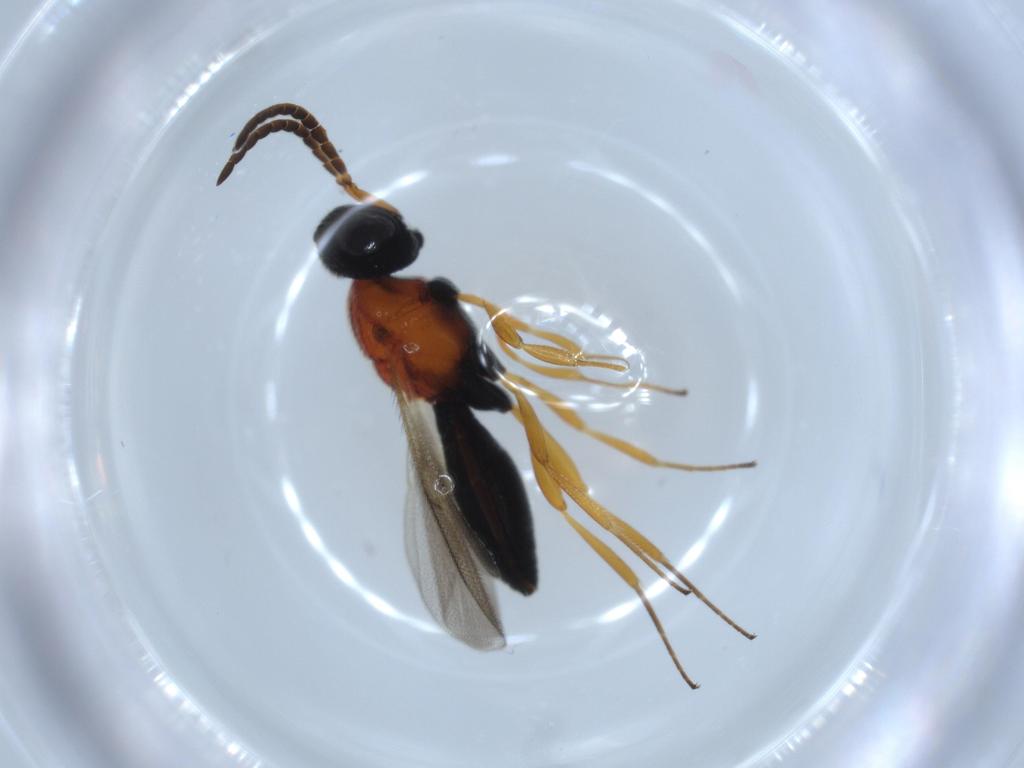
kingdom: Animalia
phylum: Arthropoda
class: Insecta
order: Hymenoptera
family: Scelionidae
